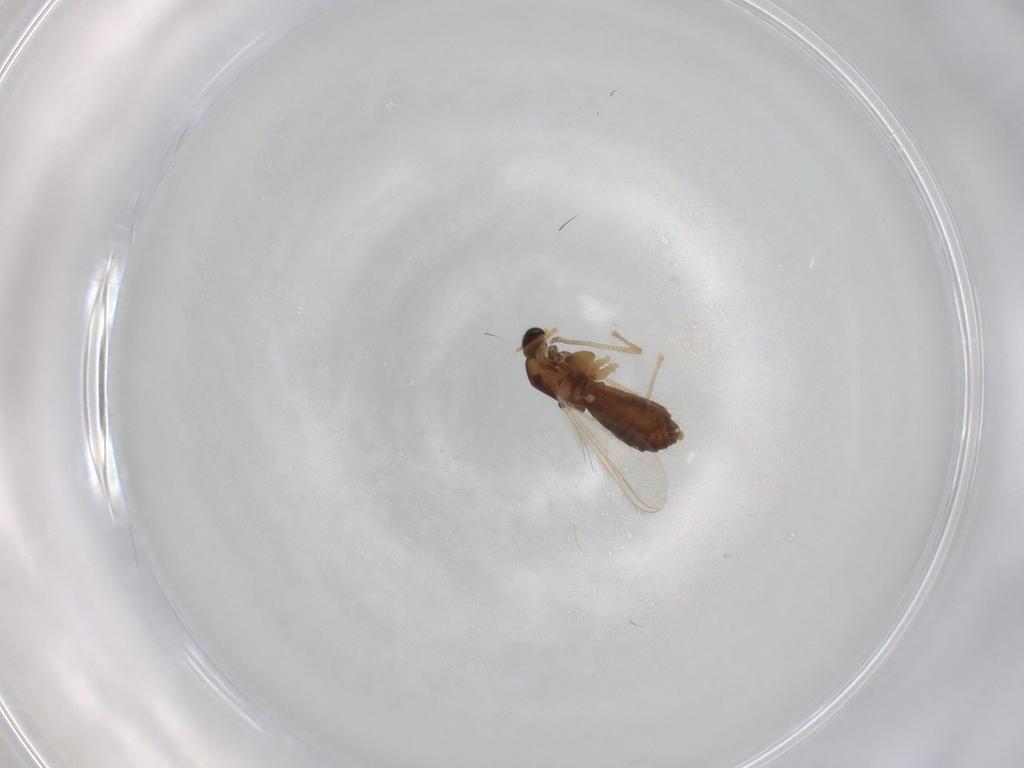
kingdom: Animalia
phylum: Arthropoda
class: Insecta
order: Diptera
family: Chironomidae
